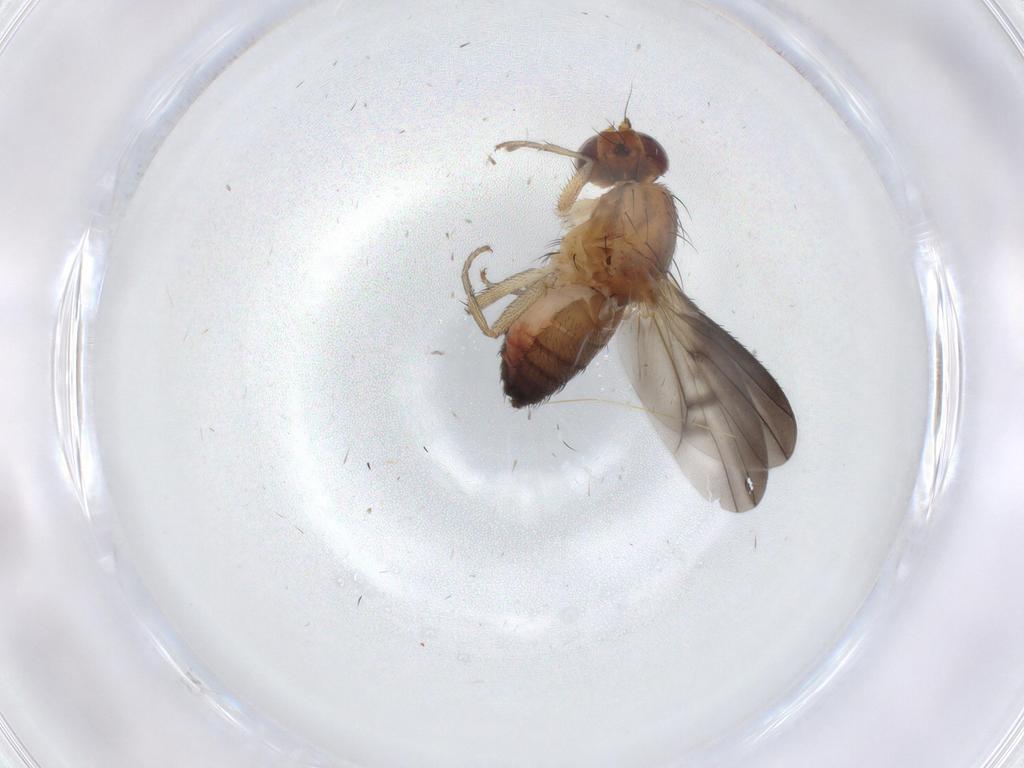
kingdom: Animalia
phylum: Arthropoda
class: Insecta
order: Diptera
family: Heleomyzidae
